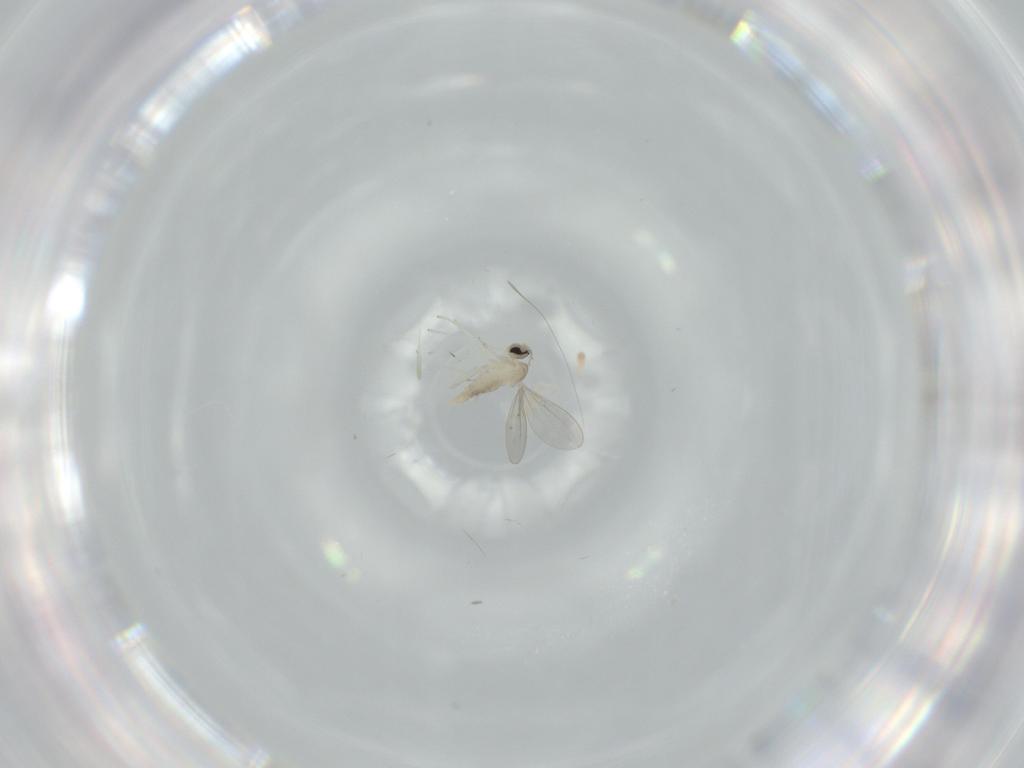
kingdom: Animalia
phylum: Arthropoda
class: Insecta
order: Diptera
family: Cecidomyiidae
